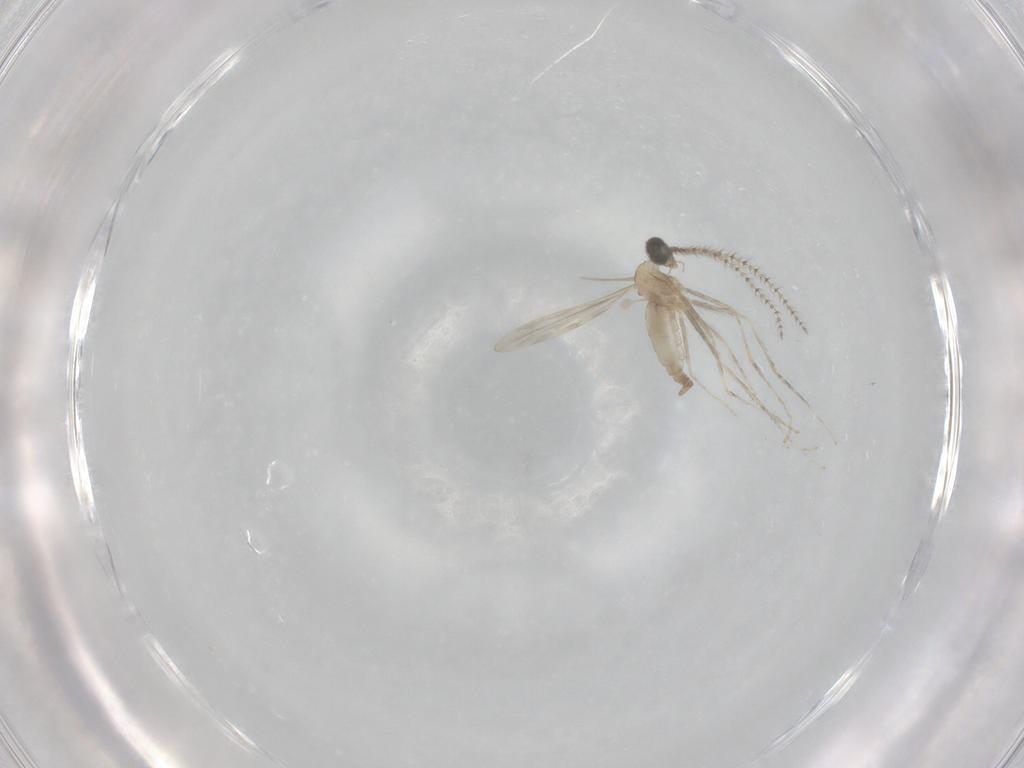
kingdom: Animalia
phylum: Arthropoda
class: Insecta
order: Diptera
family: Cecidomyiidae
